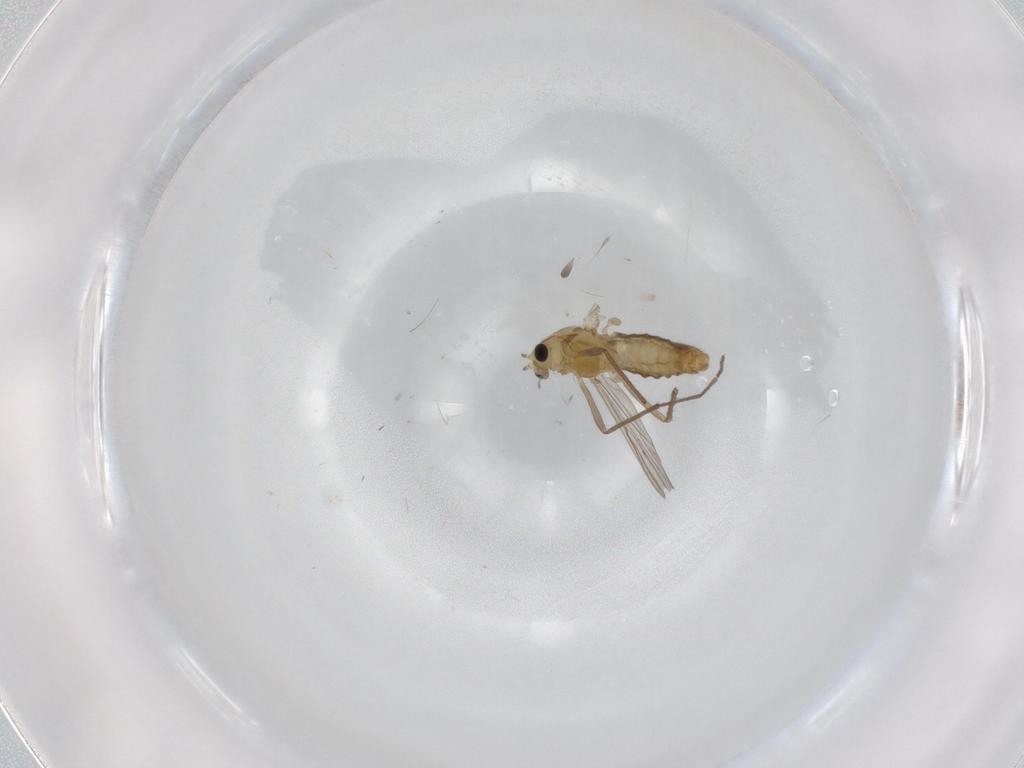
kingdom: Animalia
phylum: Arthropoda
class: Insecta
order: Diptera
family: Chironomidae
